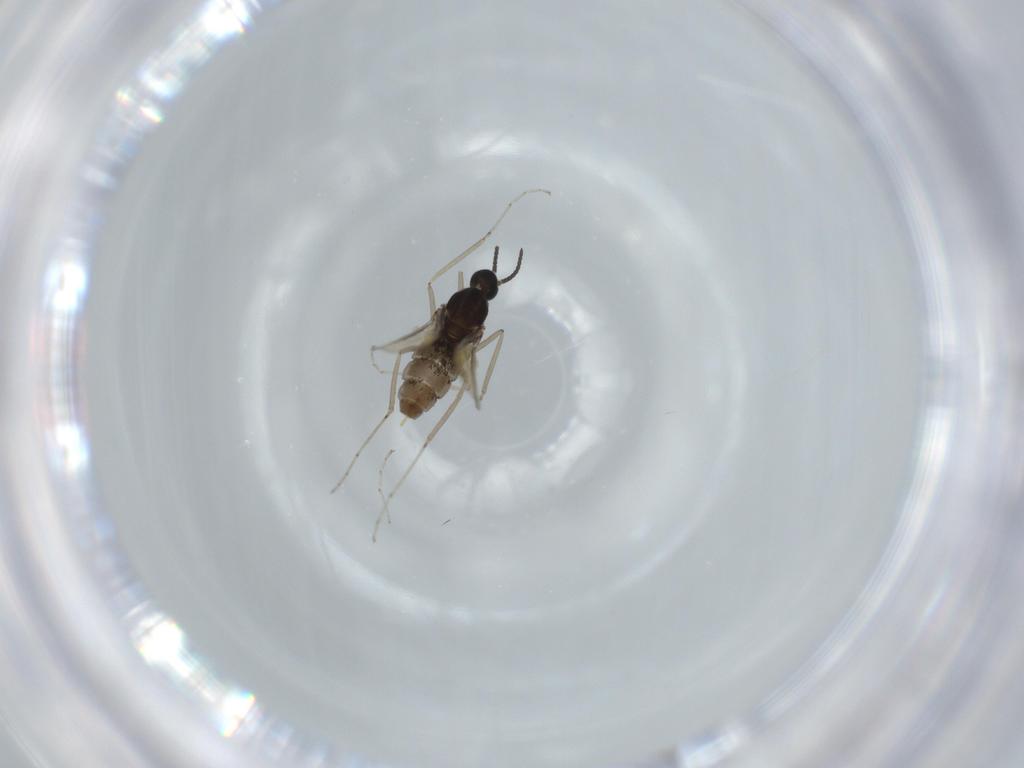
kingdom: Animalia
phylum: Arthropoda
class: Insecta
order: Diptera
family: Cecidomyiidae
